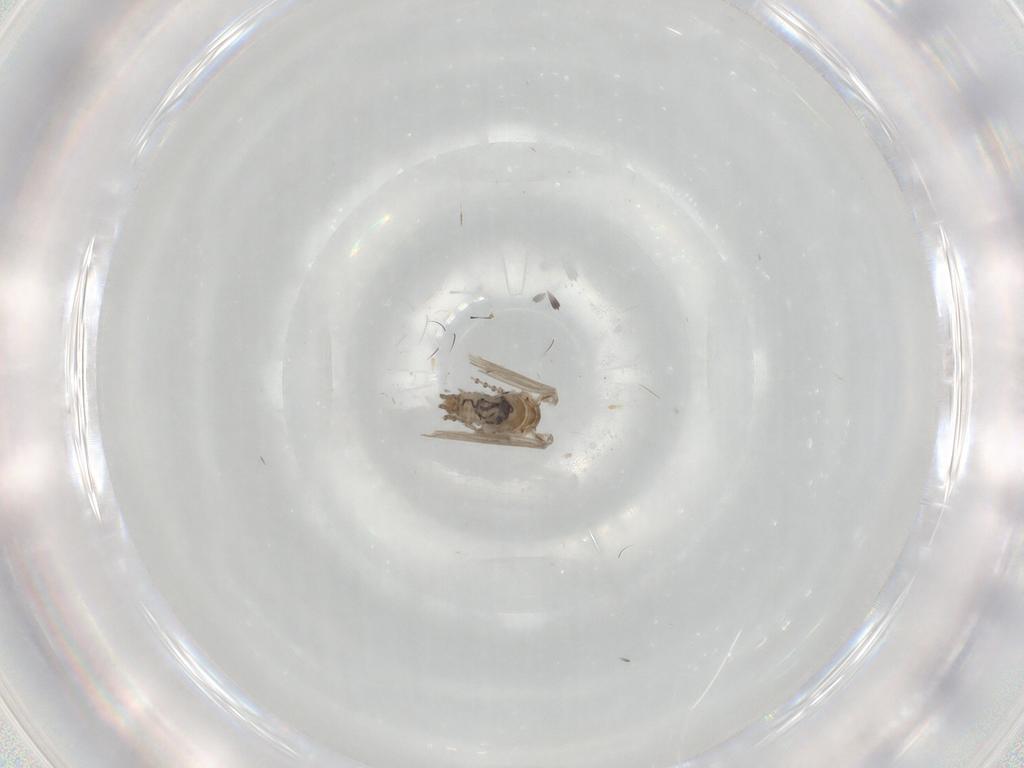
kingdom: Animalia
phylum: Arthropoda
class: Insecta
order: Diptera
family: Psychodidae
